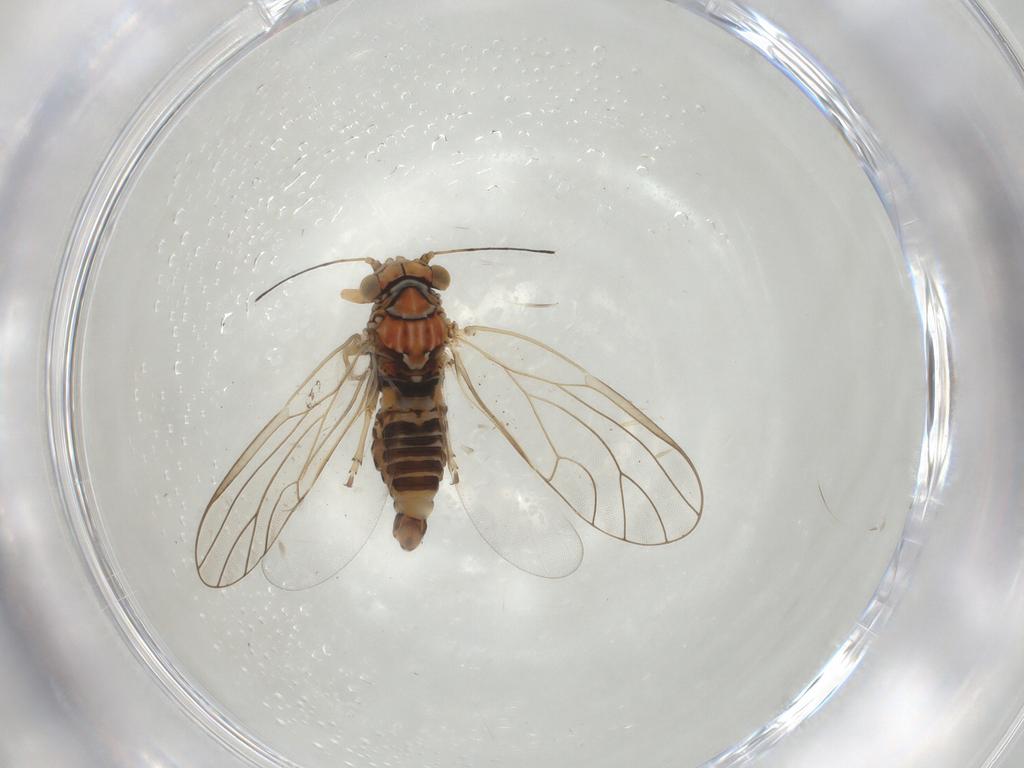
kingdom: Animalia
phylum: Arthropoda
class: Insecta
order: Hemiptera
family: Psyllidae
